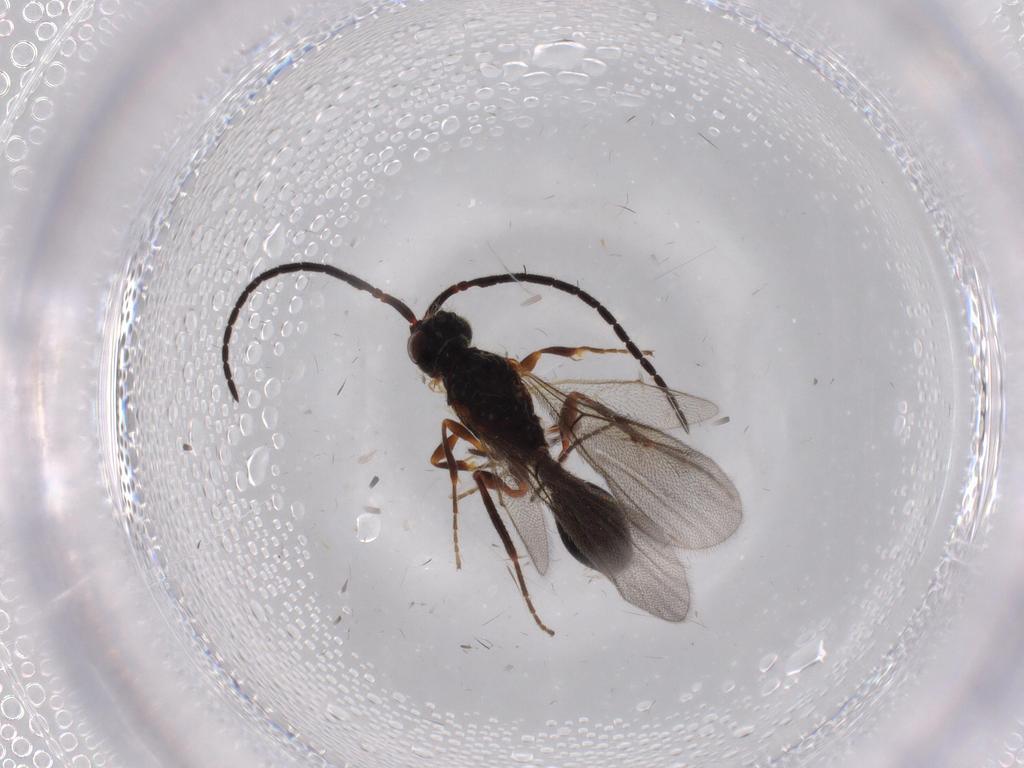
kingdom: Animalia
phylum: Arthropoda
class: Insecta
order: Hymenoptera
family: Diapriidae
